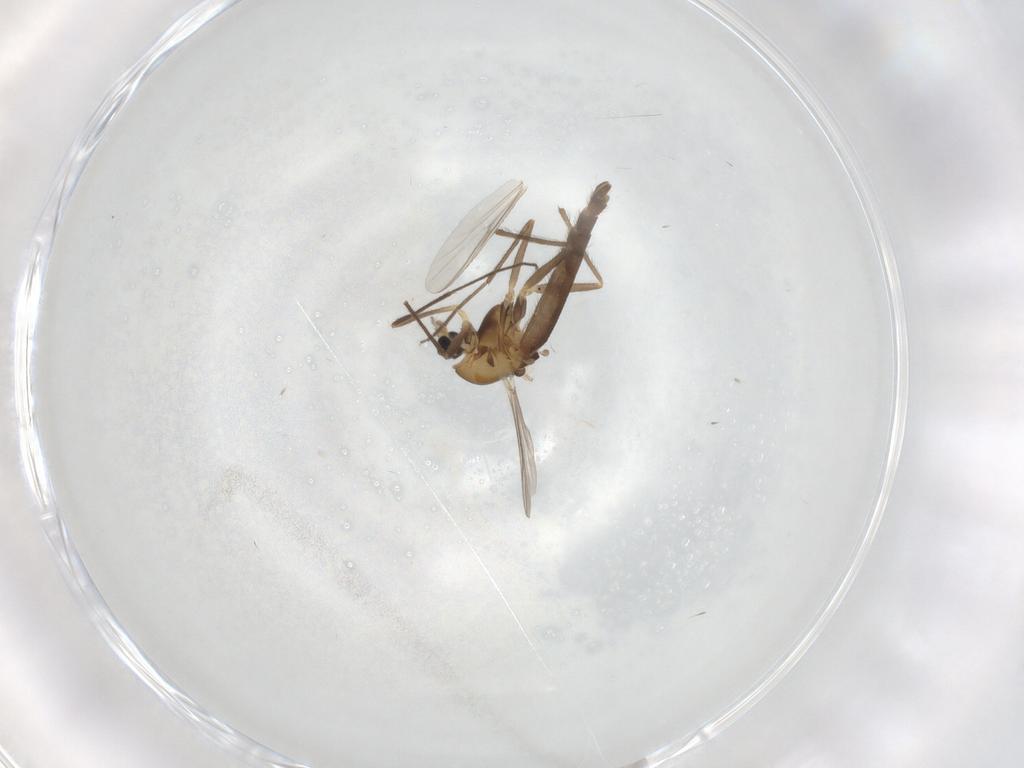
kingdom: Animalia
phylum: Arthropoda
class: Insecta
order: Diptera
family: Chironomidae
